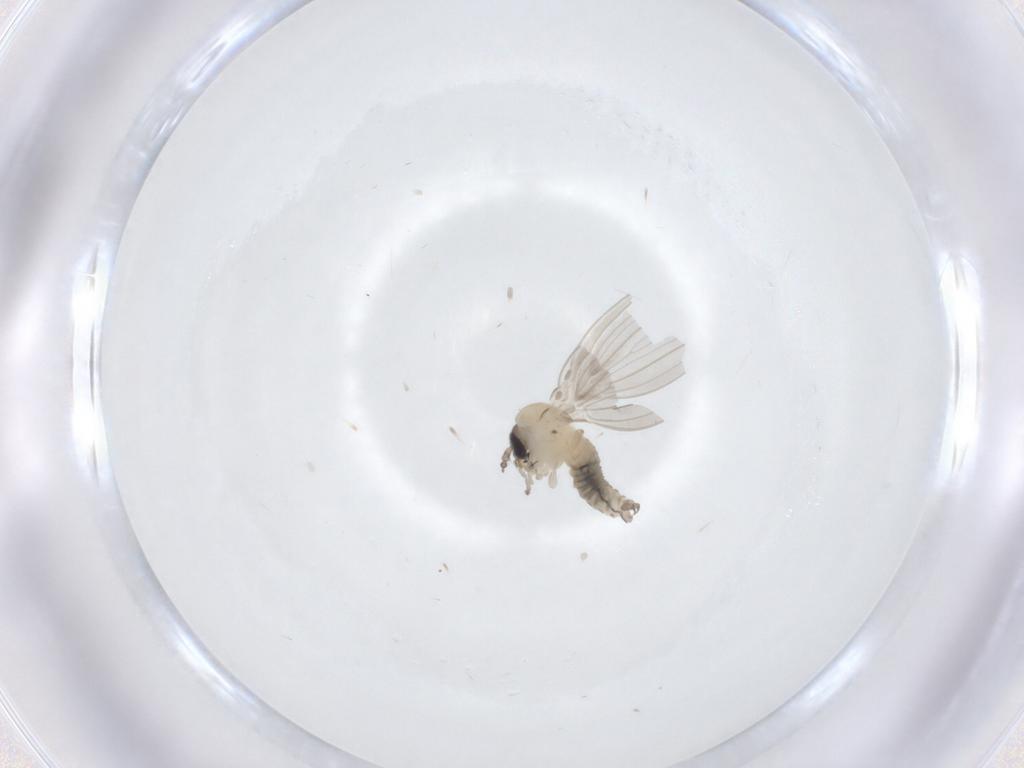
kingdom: Animalia
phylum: Arthropoda
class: Insecta
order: Diptera
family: Psychodidae
